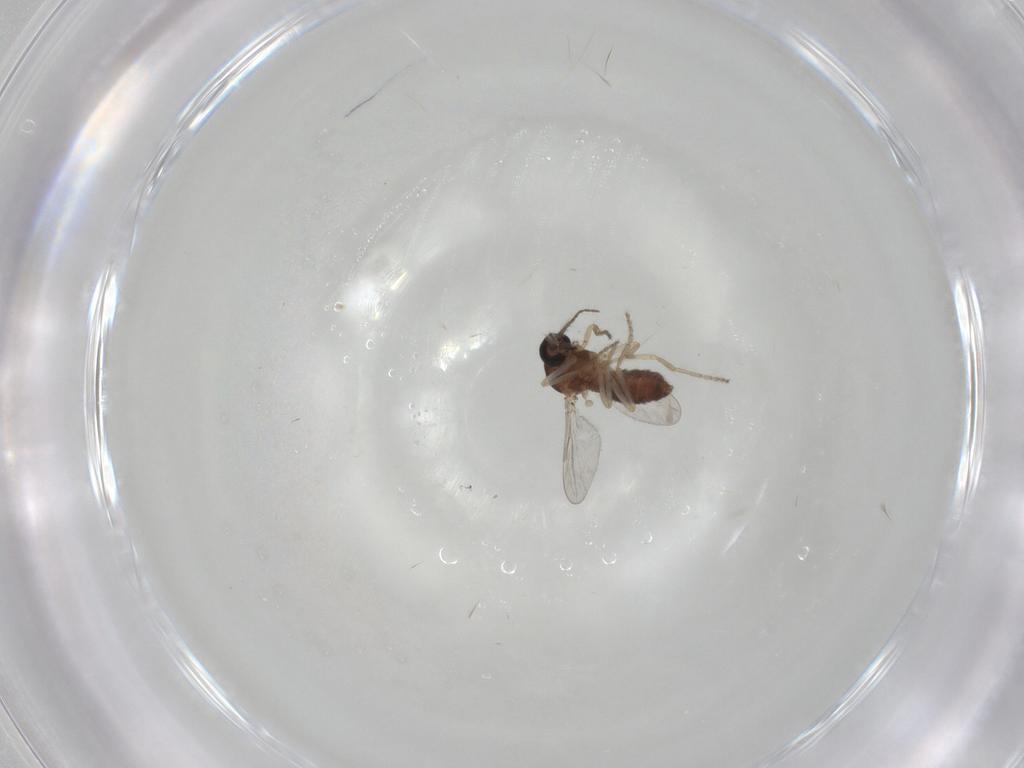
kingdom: Animalia
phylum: Arthropoda
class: Insecta
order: Diptera
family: Ceratopogonidae
